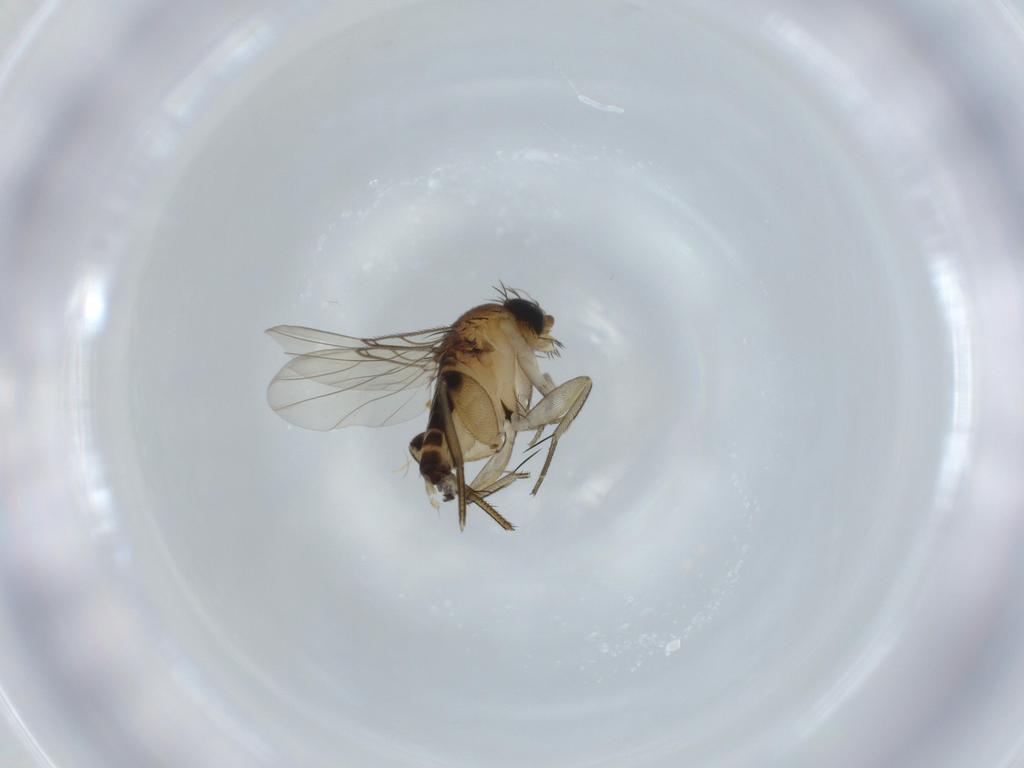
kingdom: Animalia
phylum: Arthropoda
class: Insecta
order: Diptera
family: Phoridae
